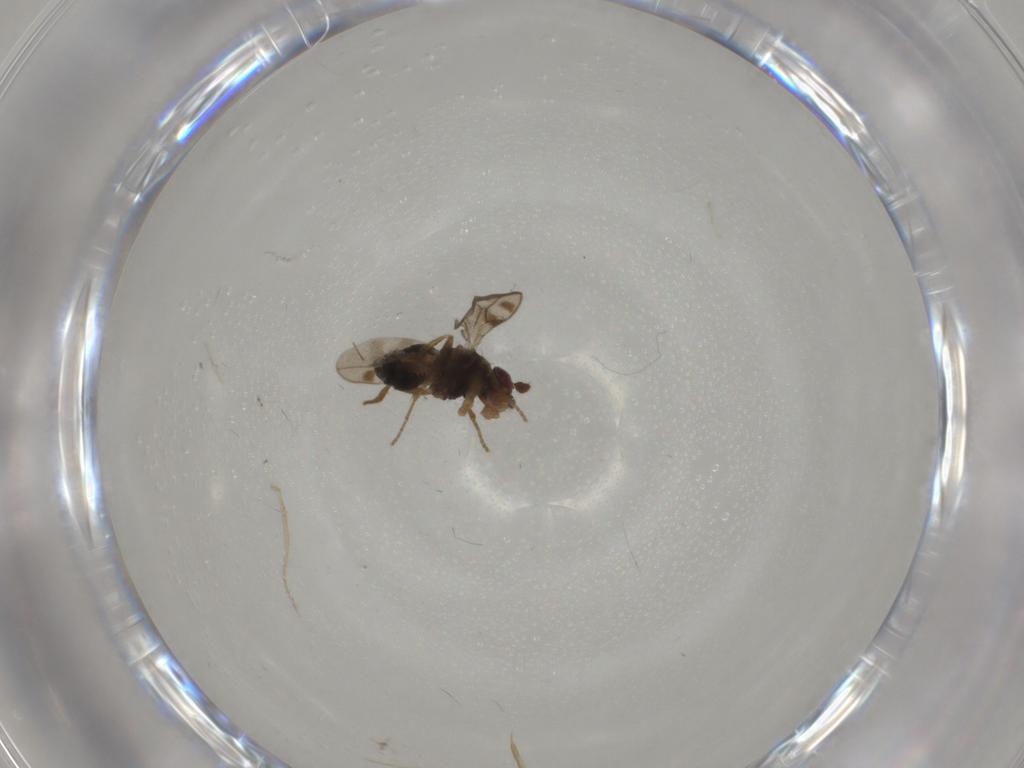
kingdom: Animalia
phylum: Arthropoda
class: Insecta
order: Diptera
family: Sphaeroceridae
